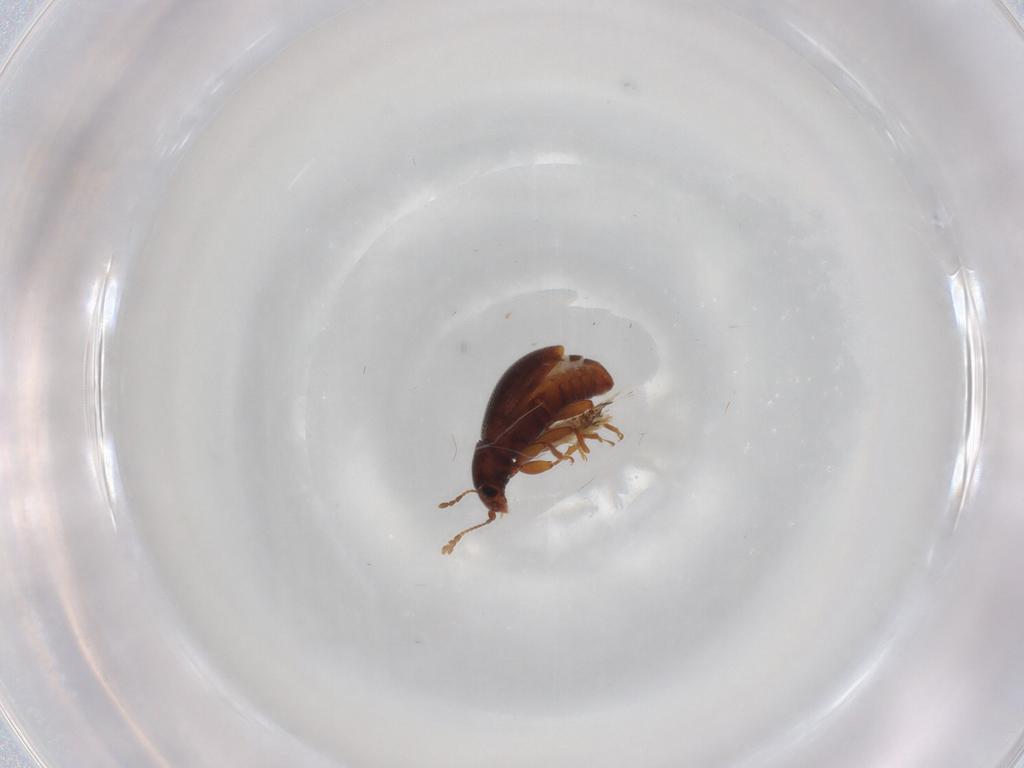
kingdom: Animalia
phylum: Arthropoda
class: Insecta
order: Coleoptera
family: Latridiidae
